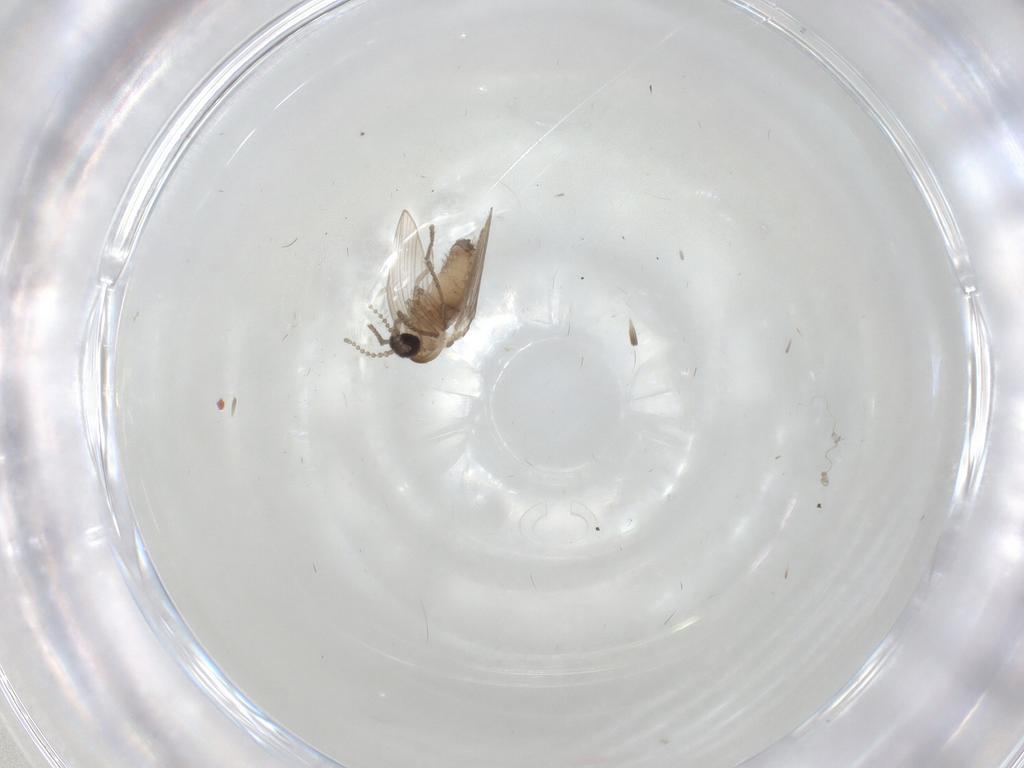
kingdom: Animalia
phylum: Arthropoda
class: Insecta
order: Diptera
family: Psychodidae
